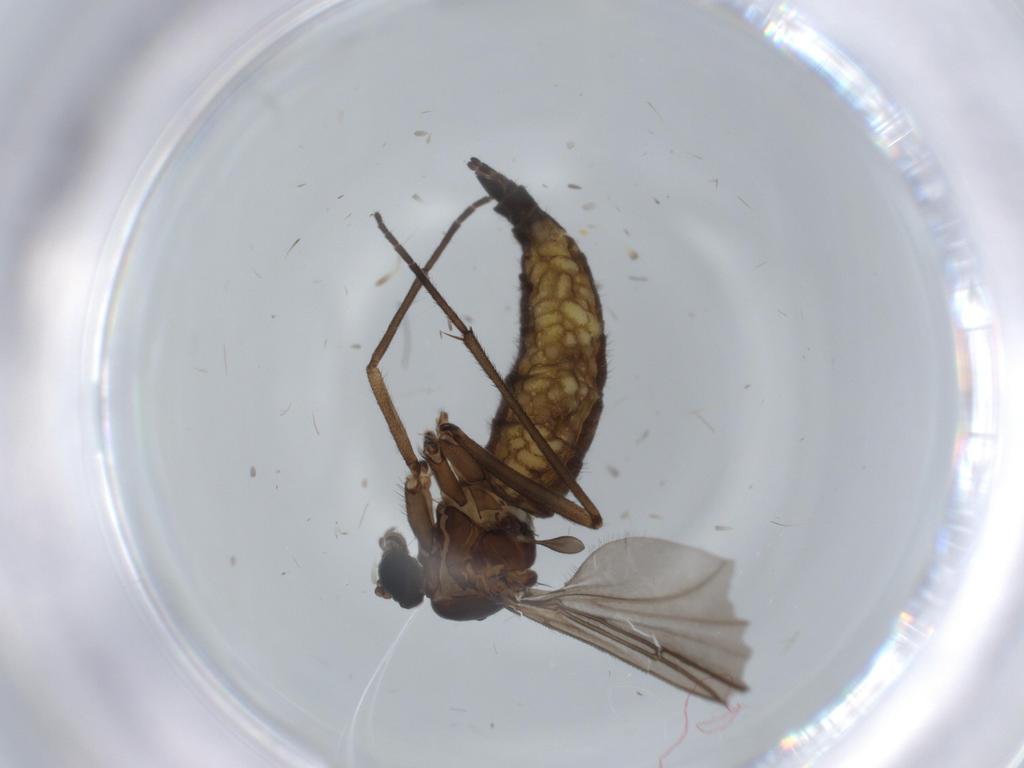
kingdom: Animalia
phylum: Arthropoda
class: Insecta
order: Diptera
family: Sciaridae
